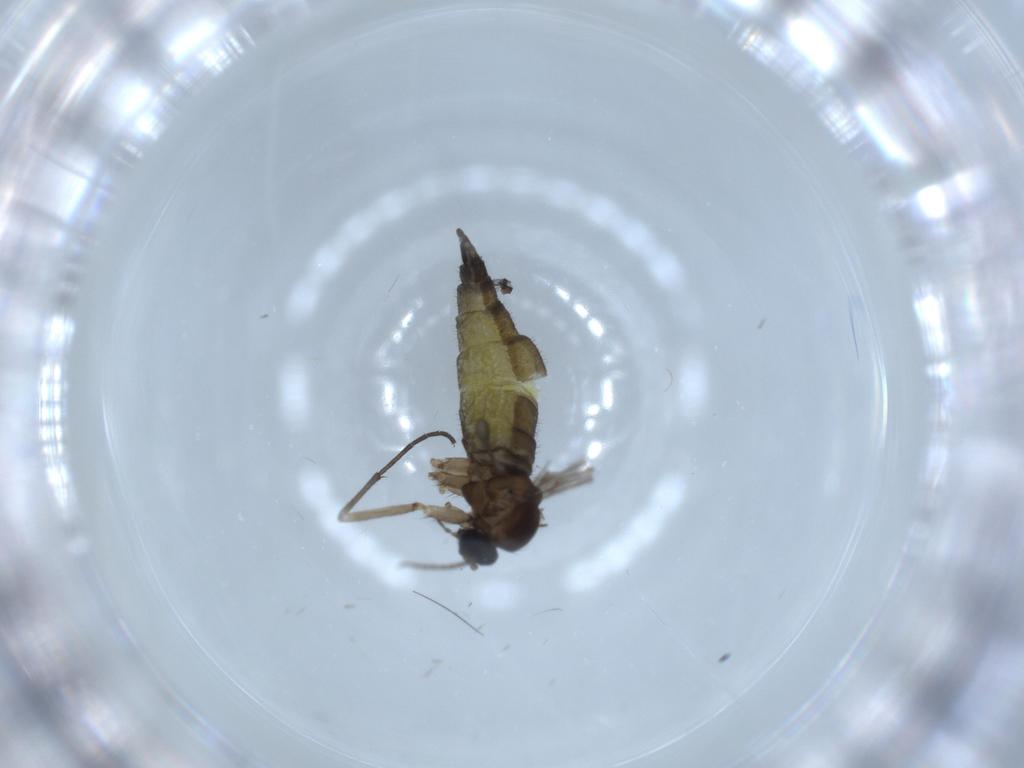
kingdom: Animalia
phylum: Arthropoda
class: Insecta
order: Diptera
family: Sciaridae
